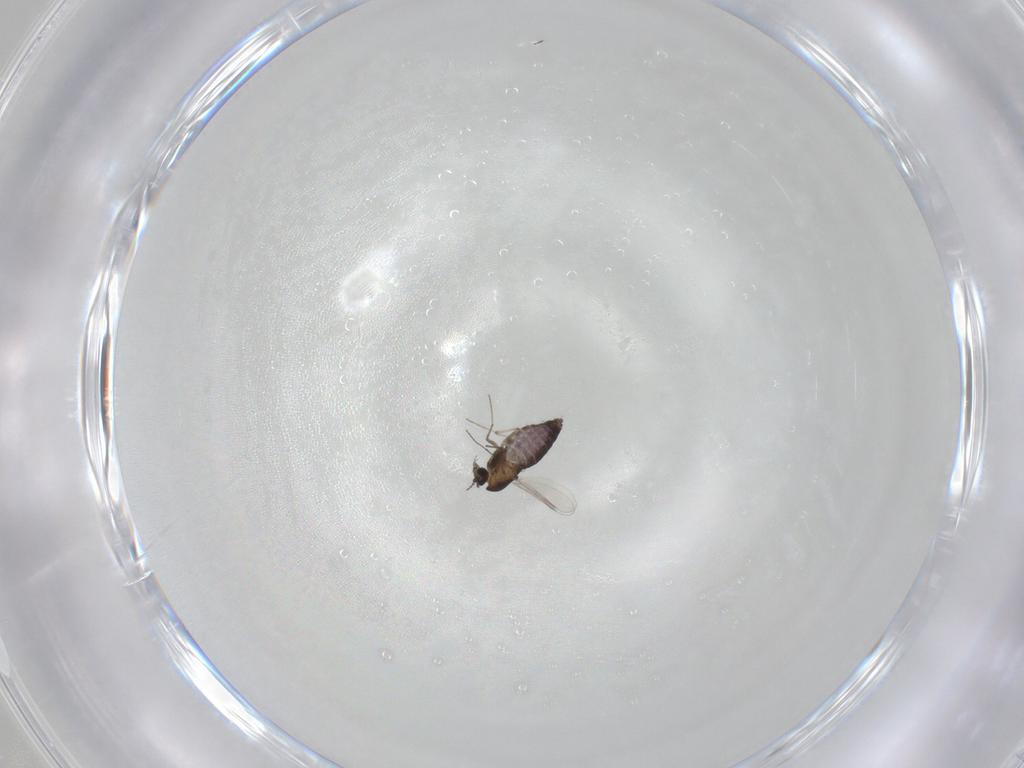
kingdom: Animalia
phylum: Arthropoda
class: Insecta
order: Diptera
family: Chironomidae
